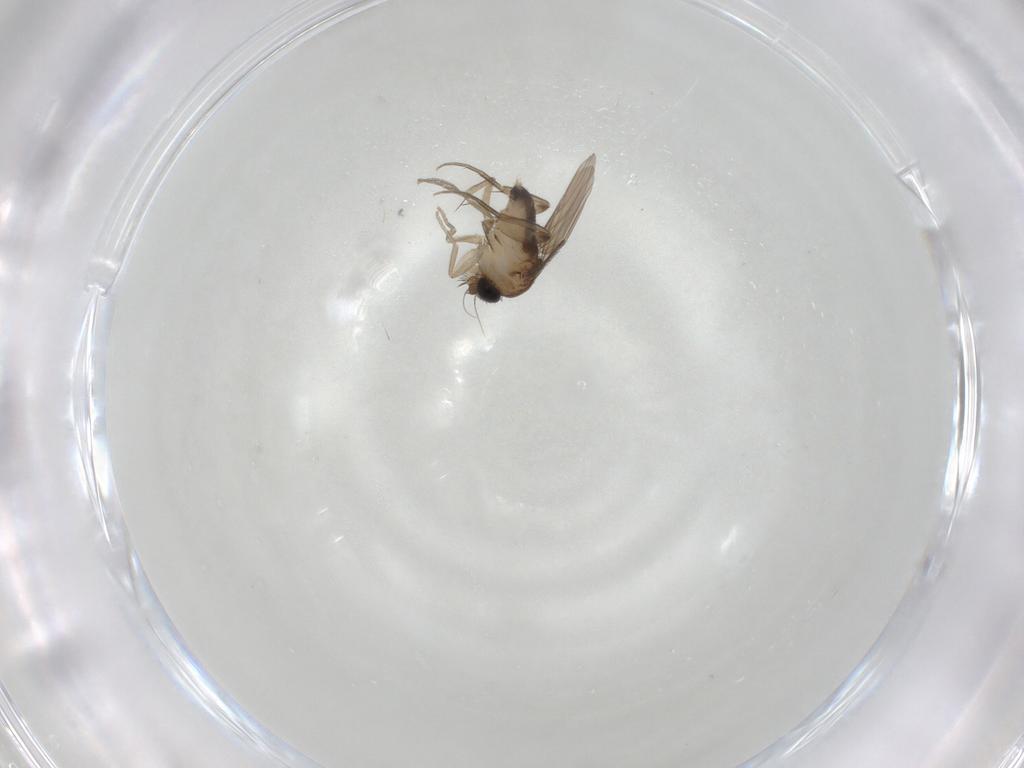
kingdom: Animalia
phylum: Arthropoda
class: Insecta
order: Diptera
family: Phoridae
